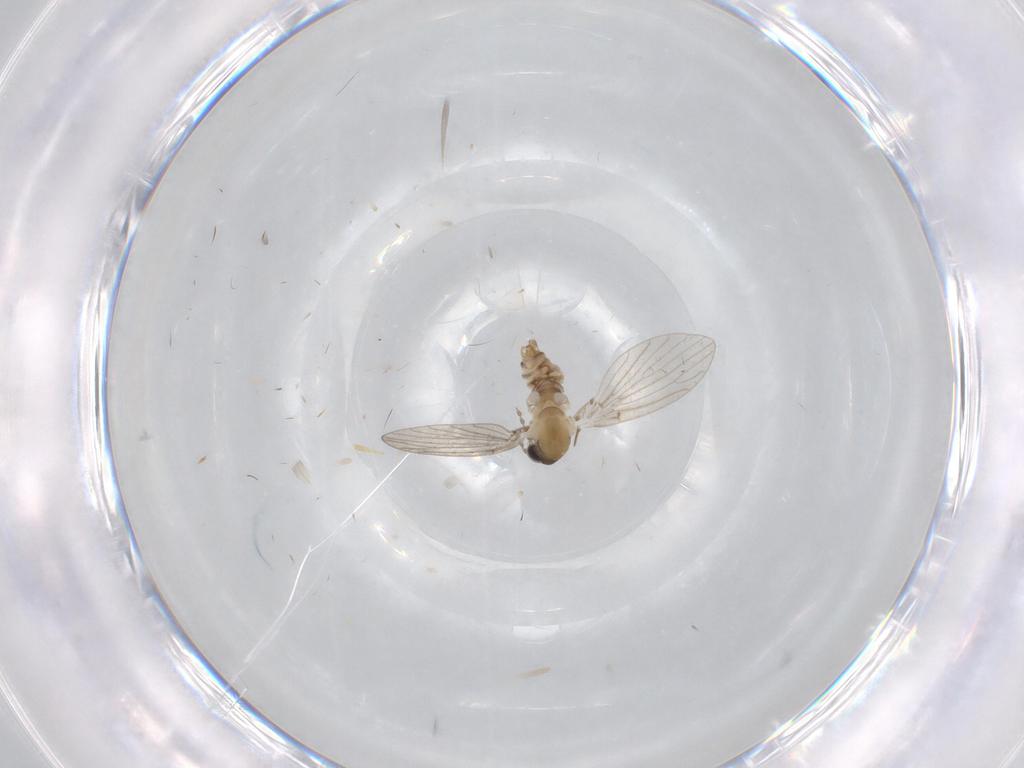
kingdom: Animalia
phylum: Arthropoda
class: Insecta
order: Diptera
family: Psychodidae
